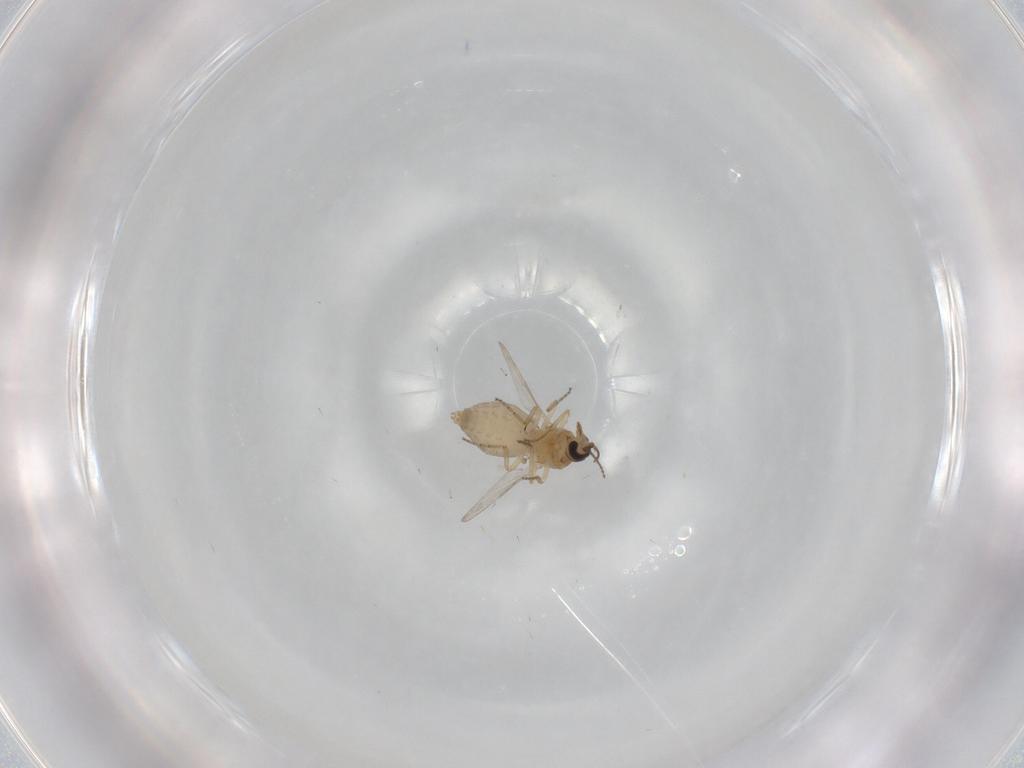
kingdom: Animalia
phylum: Arthropoda
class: Insecta
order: Diptera
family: Ceratopogonidae
